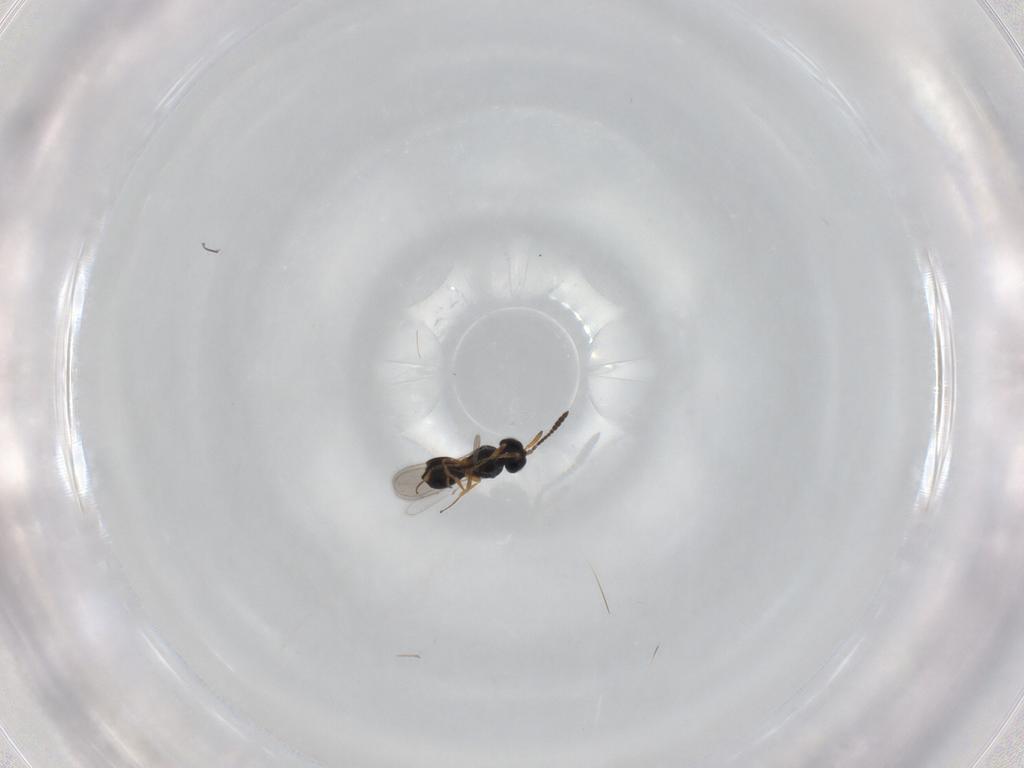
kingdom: Animalia
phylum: Arthropoda
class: Insecta
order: Hymenoptera
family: Scelionidae
